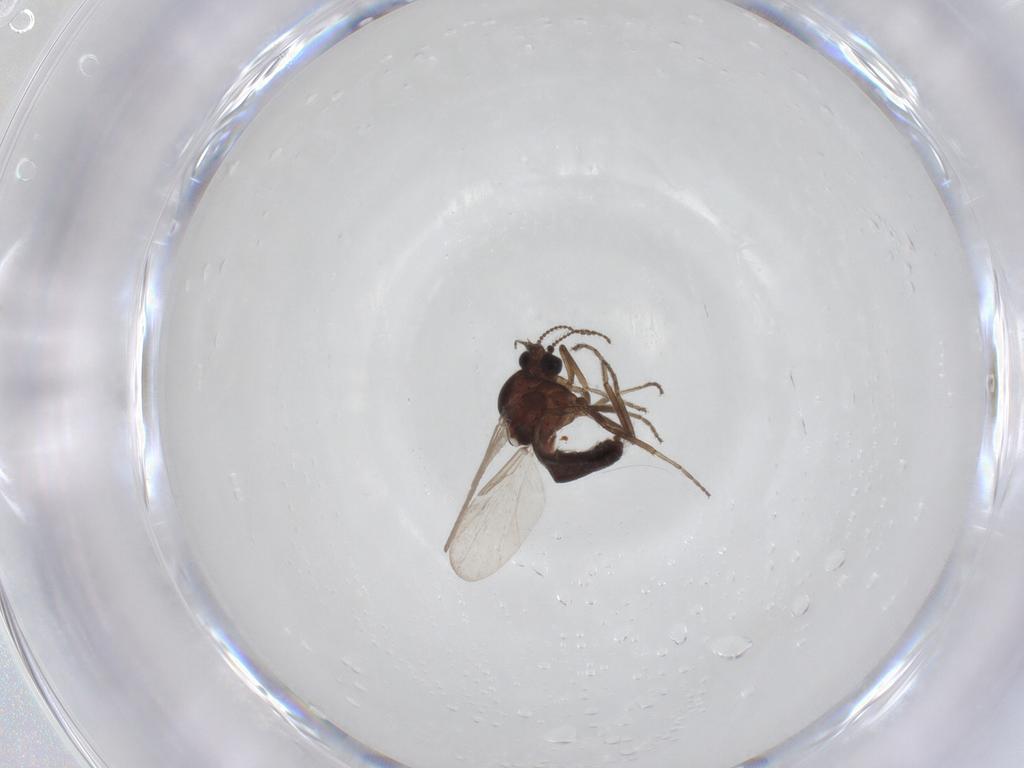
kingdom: Animalia
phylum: Arthropoda
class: Insecta
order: Diptera
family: Ceratopogonidae
